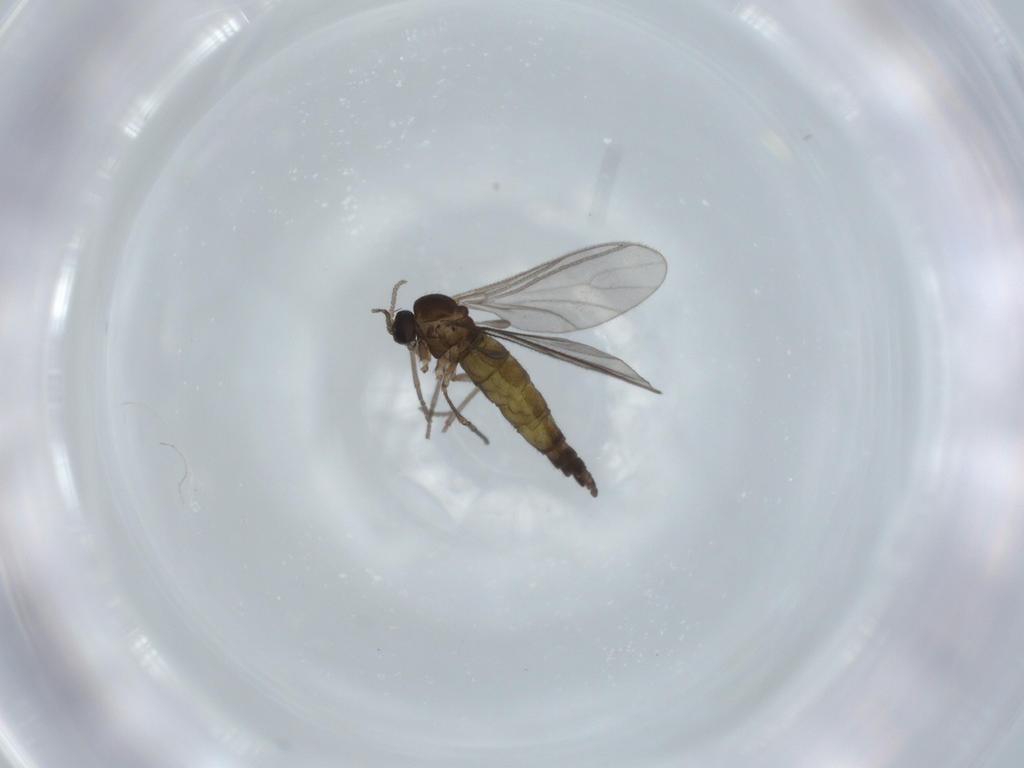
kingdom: Animalia
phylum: Arthropoda
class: Insecta
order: Diptera
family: Sciaridae
